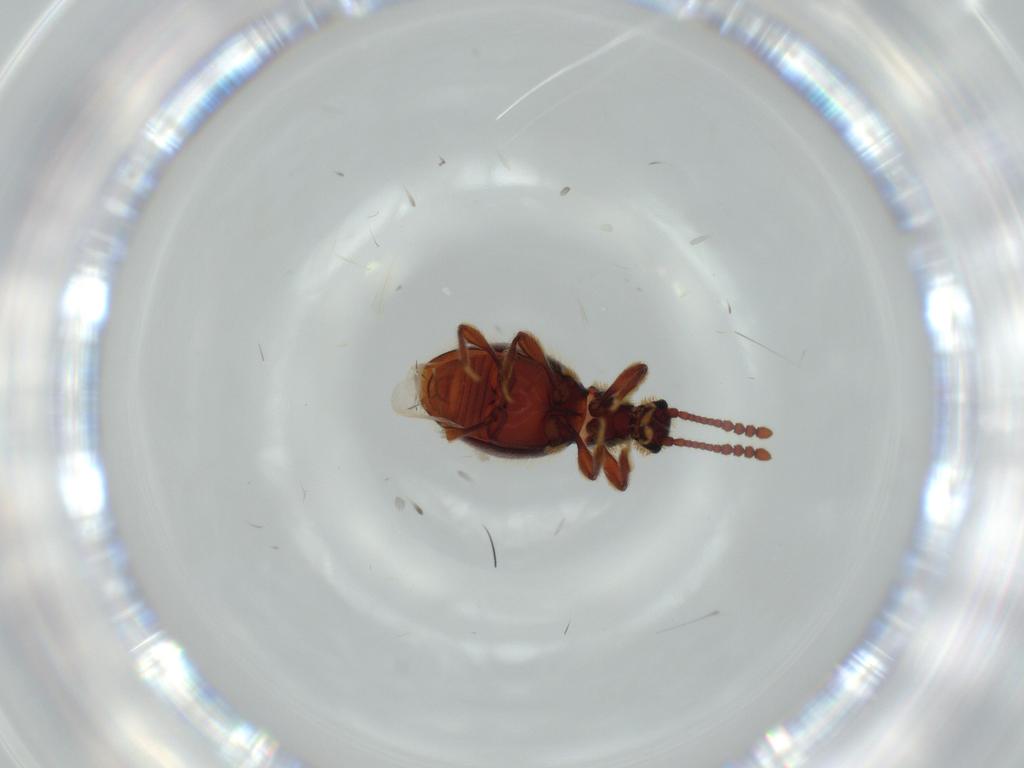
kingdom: Animalia
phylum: Arthropoda
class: Insecta
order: Coleoptera
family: Staphylinidae
